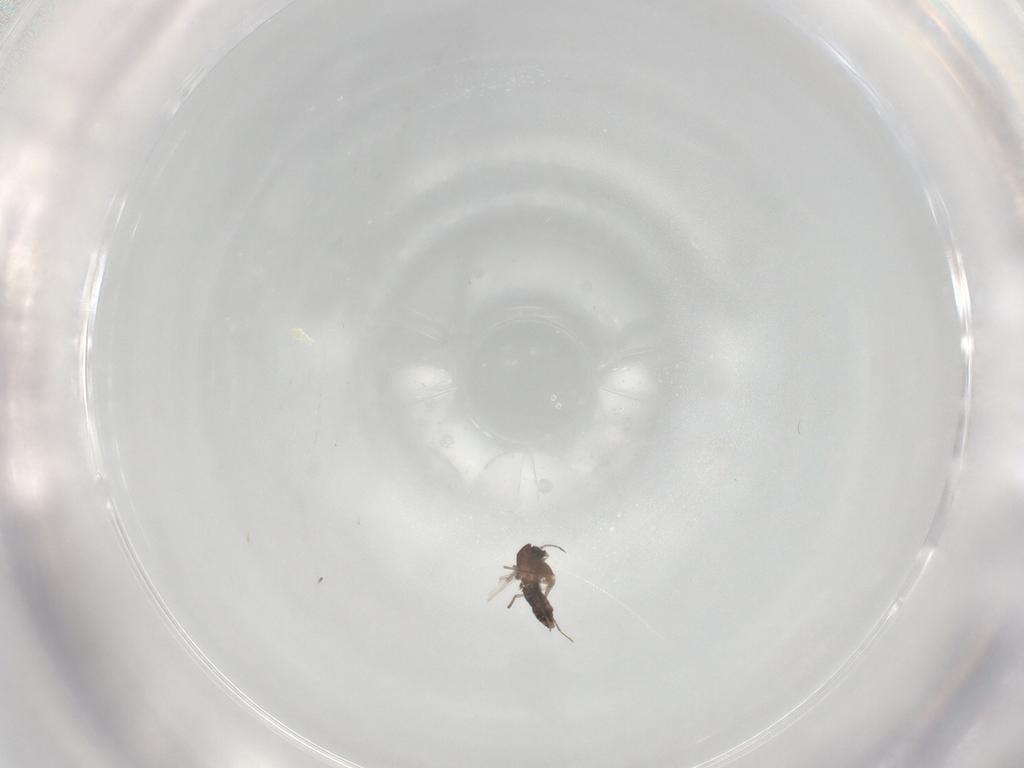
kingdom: Animalia
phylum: Arthropoda
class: Insecta
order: Diptera
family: Chironomidae
